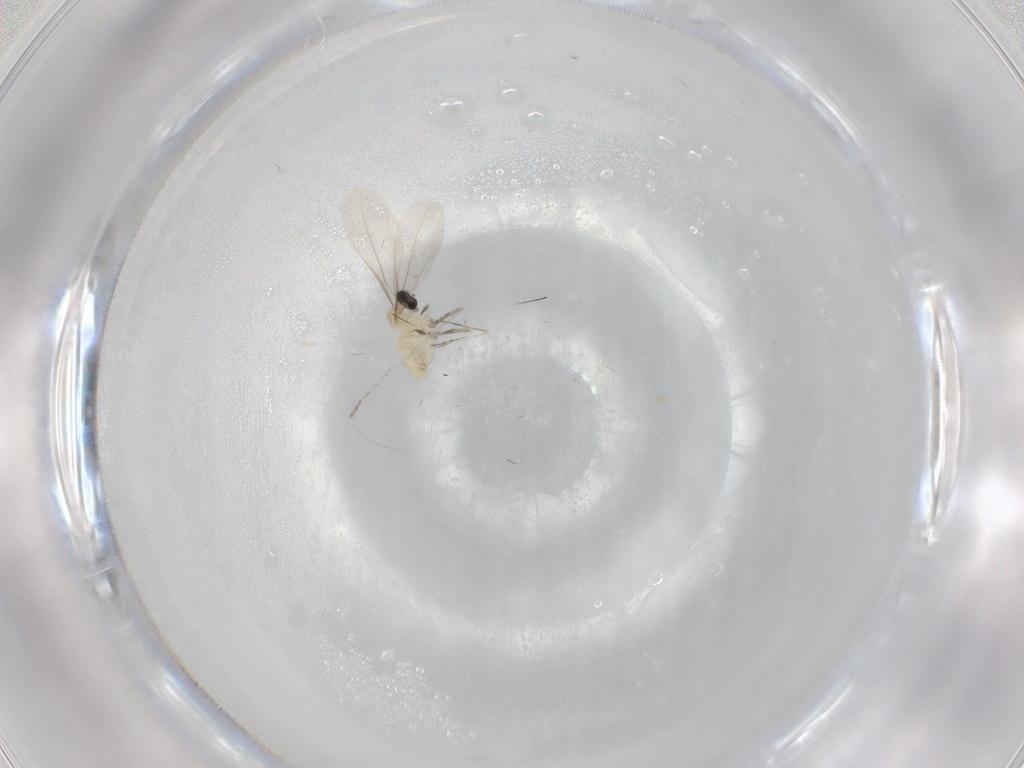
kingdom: Animalia
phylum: Arthropoda
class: Insecta
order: Diptera
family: Cecidomyiidae
